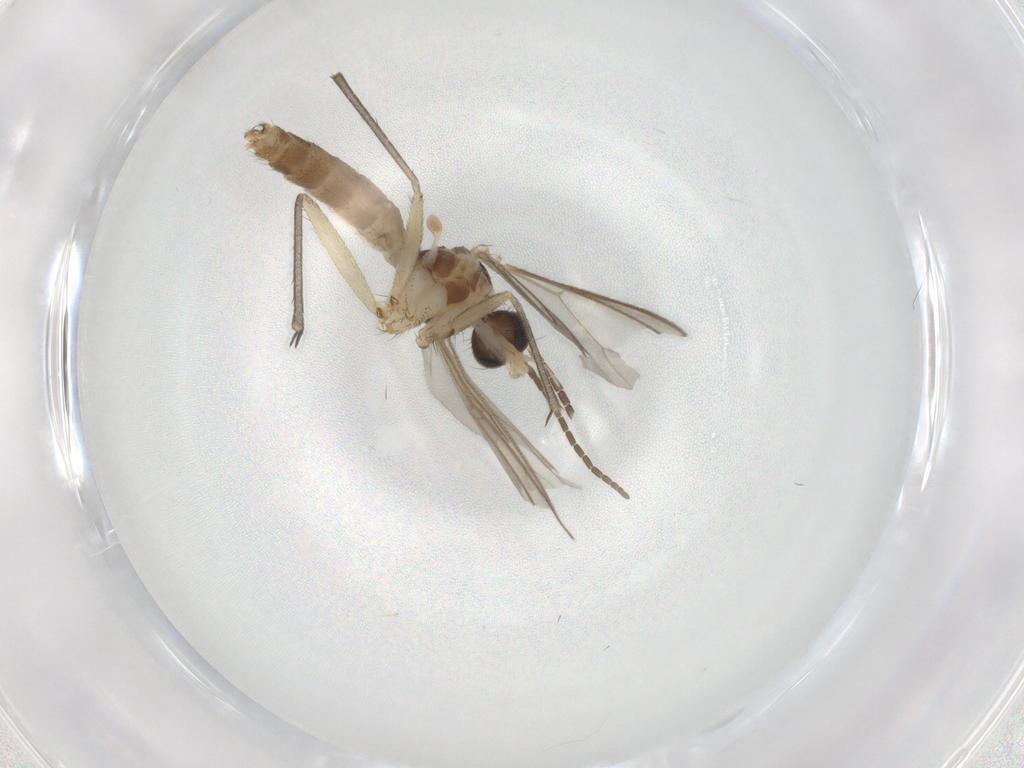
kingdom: Animalia
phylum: Arthropoda
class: Insecta
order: Diptera
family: Mycetophilidae
